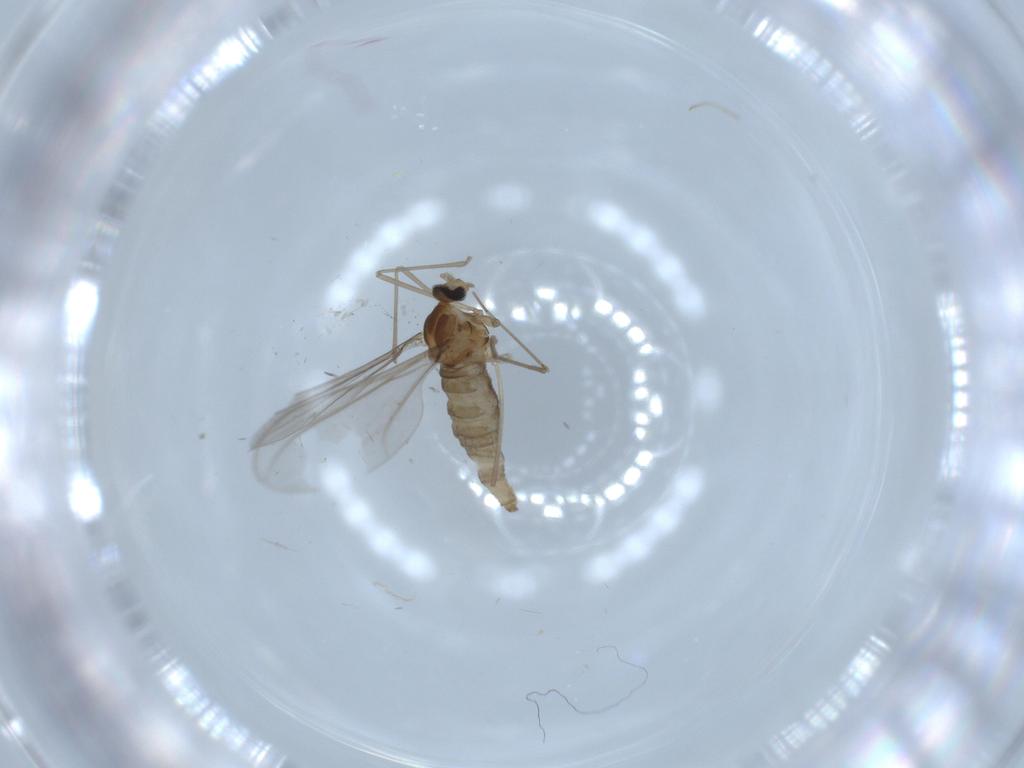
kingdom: Animalia
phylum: Arthropoda
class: Insecta
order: Diptera
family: Cecidomyiidae
